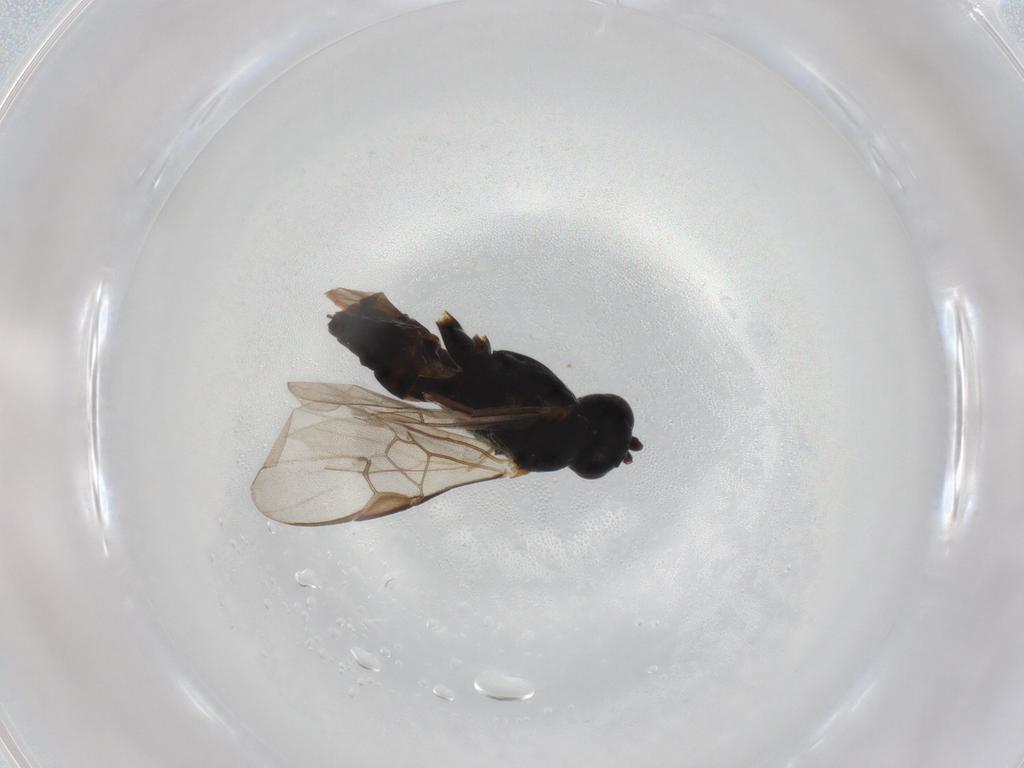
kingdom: Animalia
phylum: Arthropoda
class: Insecta
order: Hymenoptera
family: Braconidae
